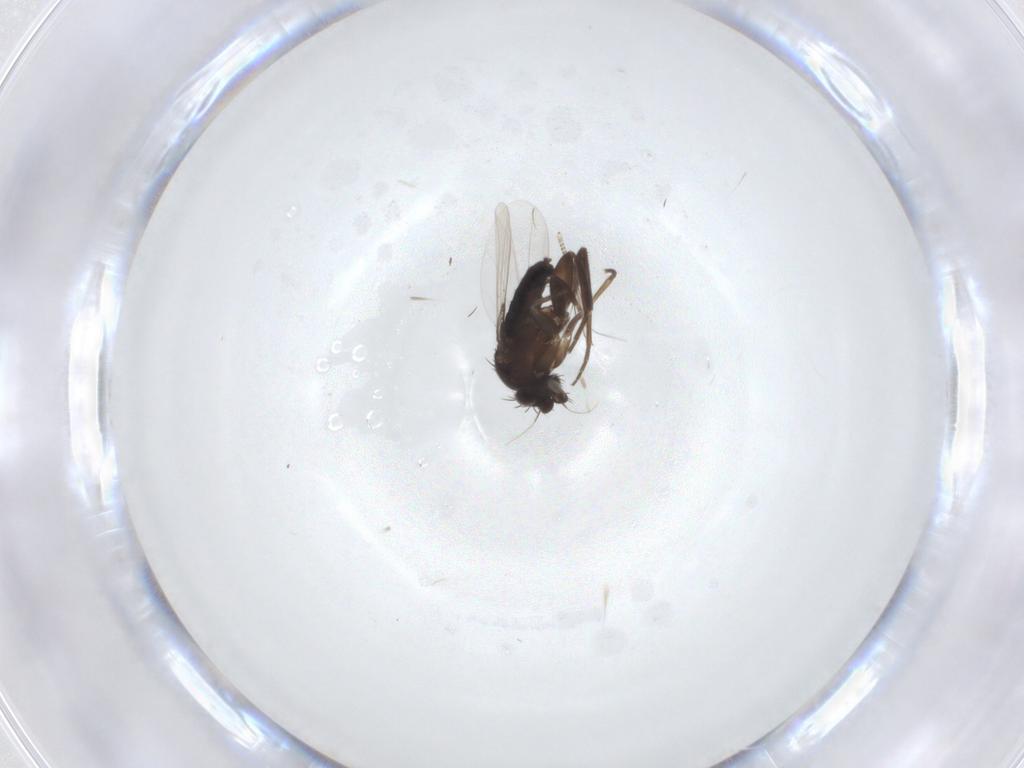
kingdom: Animalia
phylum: Arthropoda
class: Insecta
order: Diptera
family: Chironomidae
